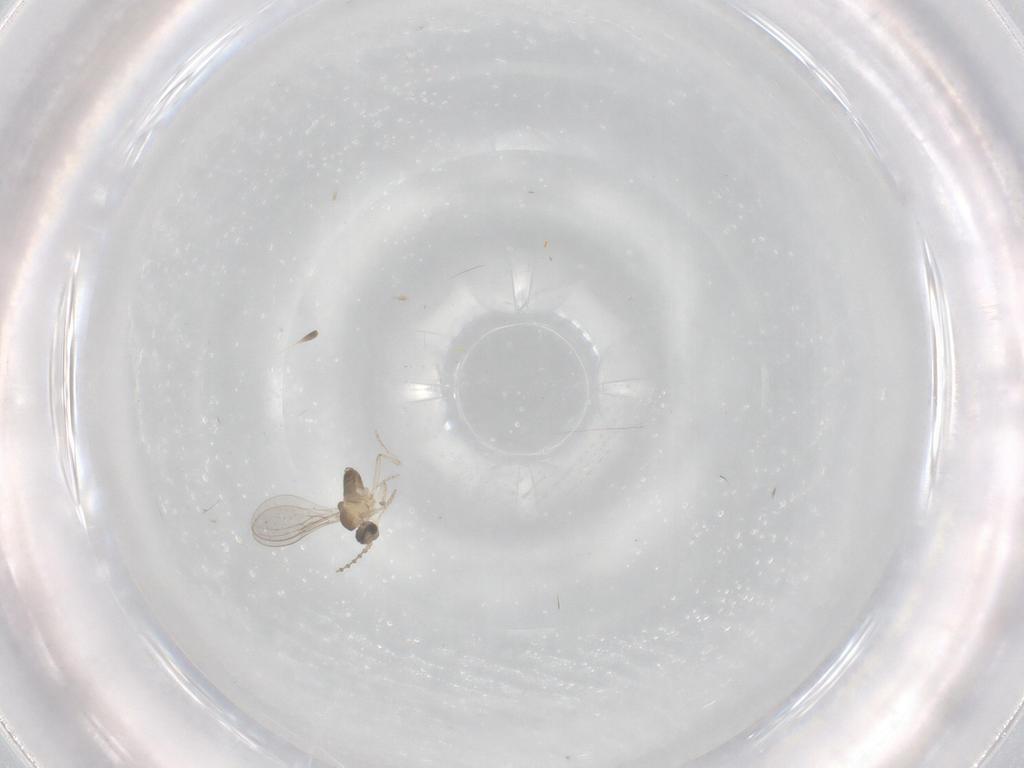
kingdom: Animalia
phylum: Arthropoda
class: Insecta
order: Diptera
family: Cecidomyiidae
